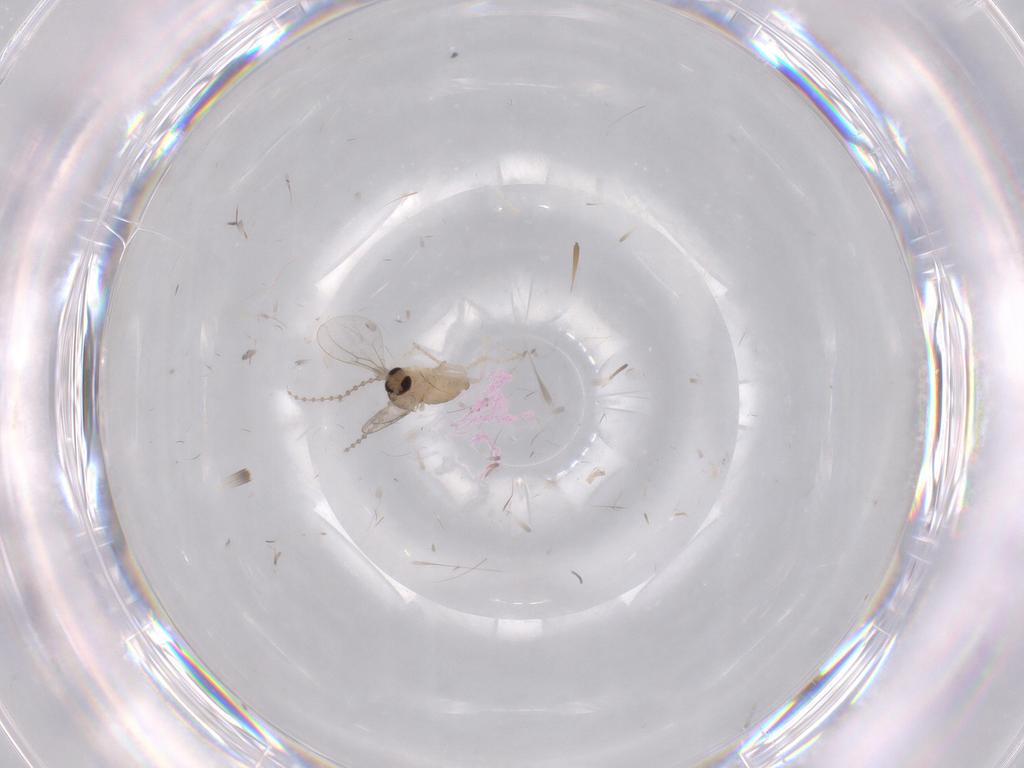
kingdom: Animalia
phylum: Arthropoda
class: Insecta
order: Diptera
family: Cecidomyiidae
